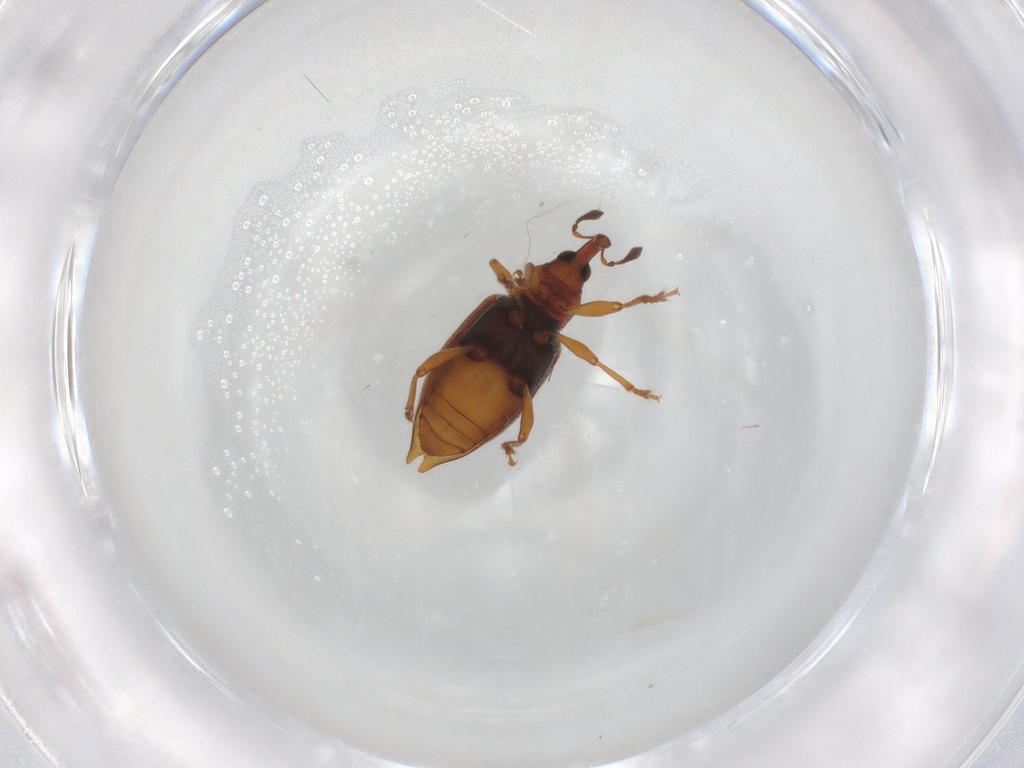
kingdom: Animalia
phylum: Arthropoda
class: Insecta
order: Coleoptera
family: Curculionidae
